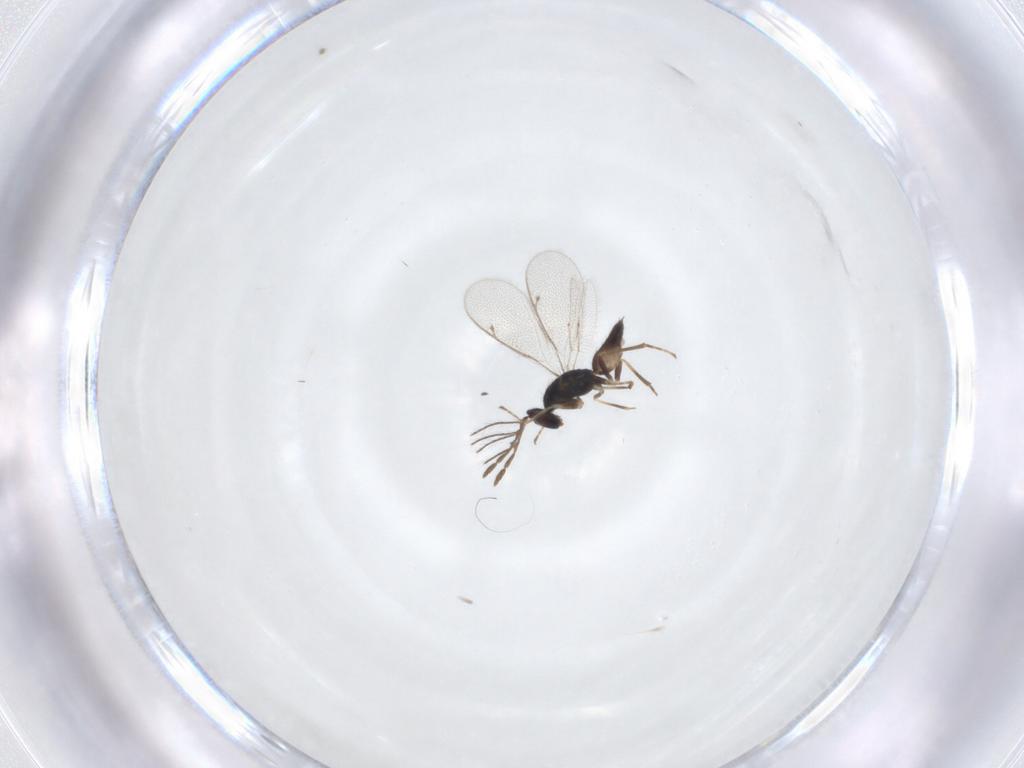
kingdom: Animalia
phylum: Arthropoda
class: Insecta
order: Hymenoptera
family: Eulophidae
